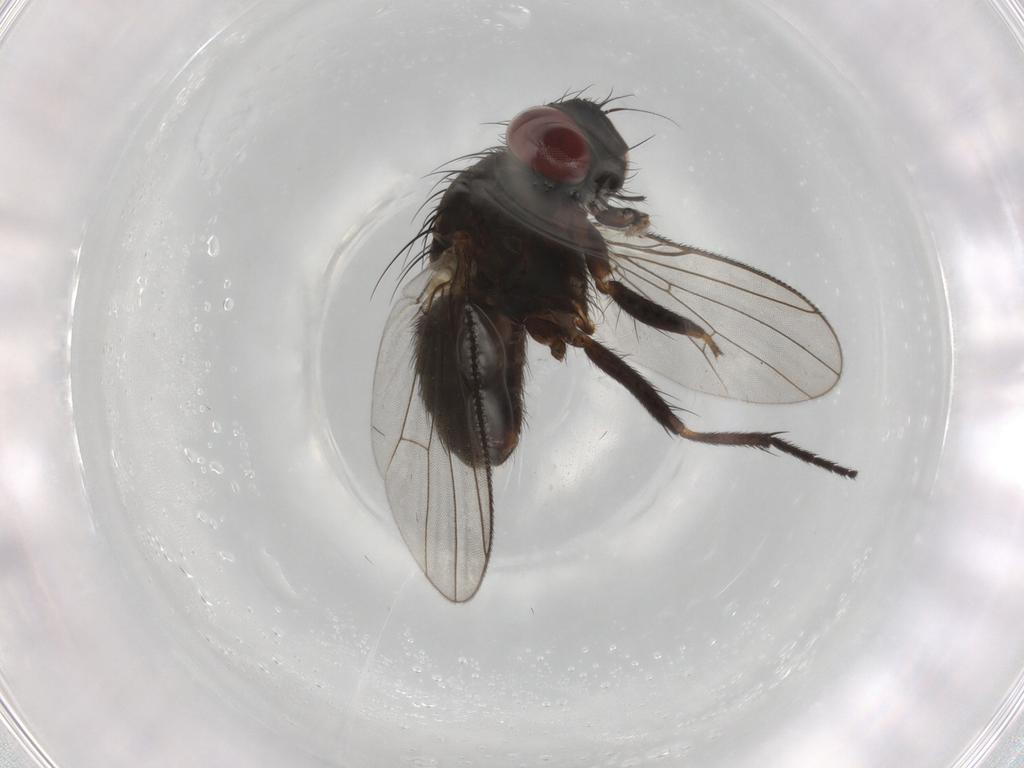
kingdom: Animalia
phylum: Arthropoda
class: Insecta
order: Diptera
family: Muscidae
